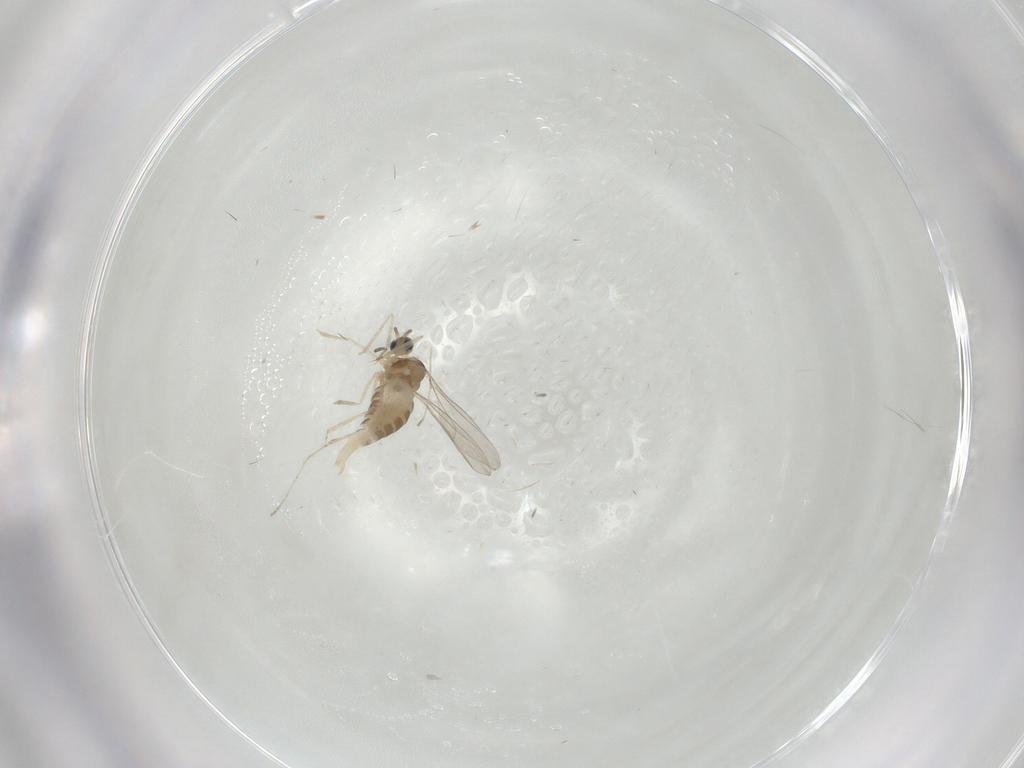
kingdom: Animalia
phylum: Arthropoda
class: Insecta
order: Diptera
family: Cecidomyiidae
